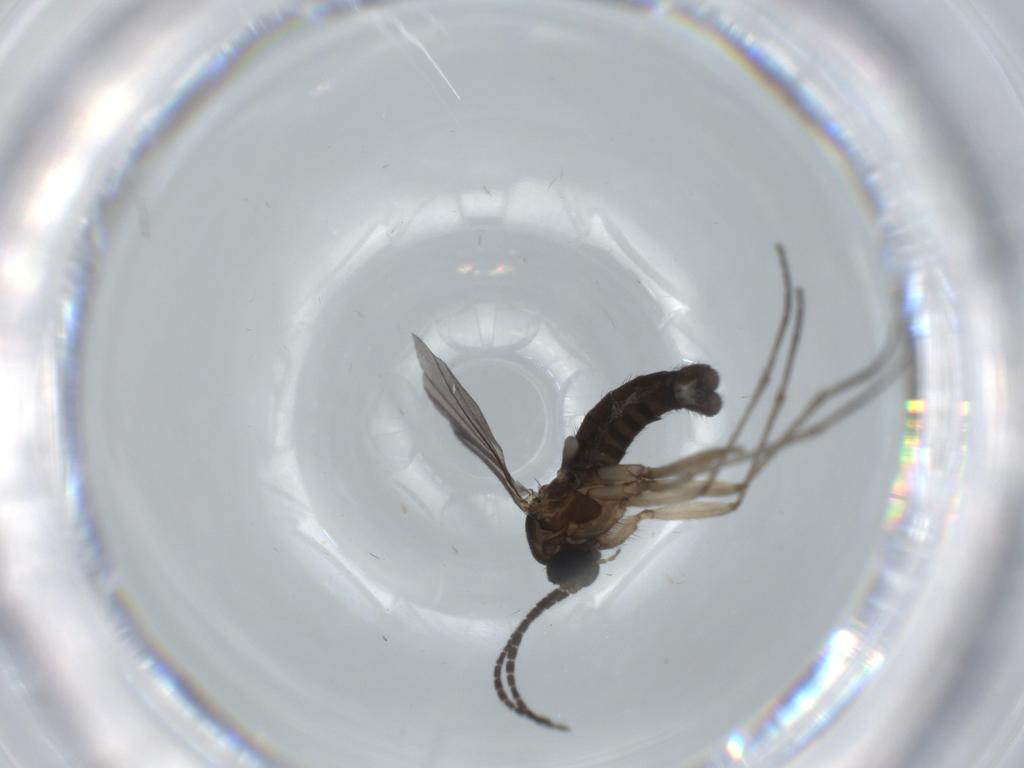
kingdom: Animalia
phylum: Arthropoda
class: Insecta
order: Diptera
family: Sciaridae
